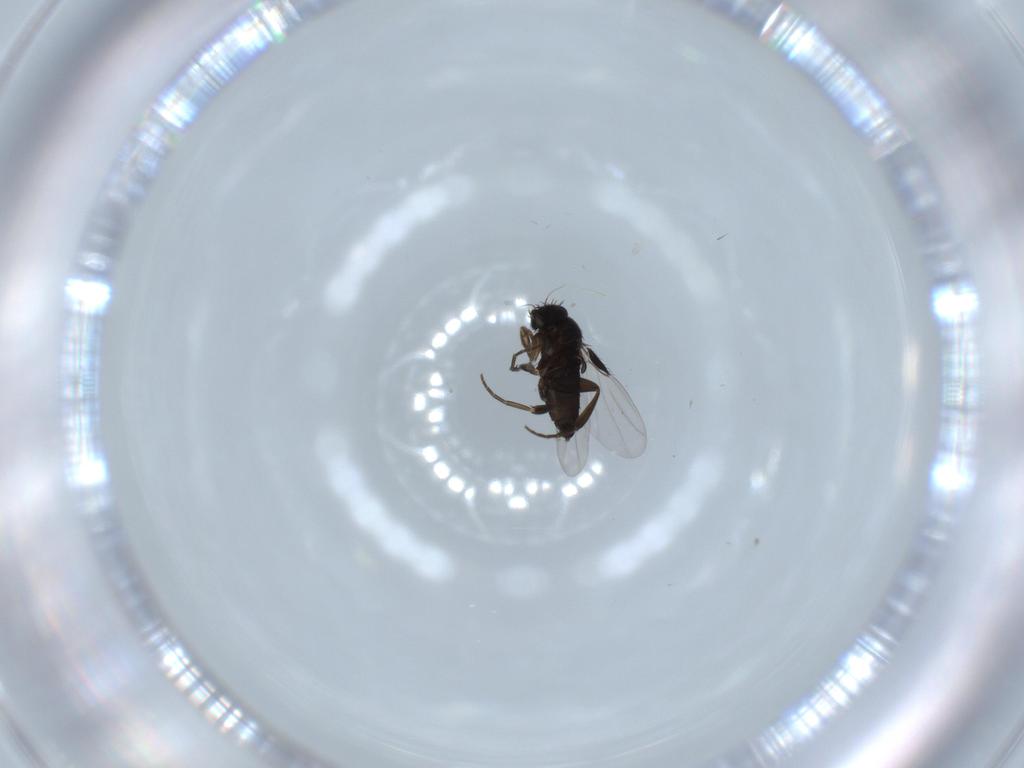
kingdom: Animalia
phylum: Arthropoda
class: Insecta
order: Diptera
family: Phoridae
